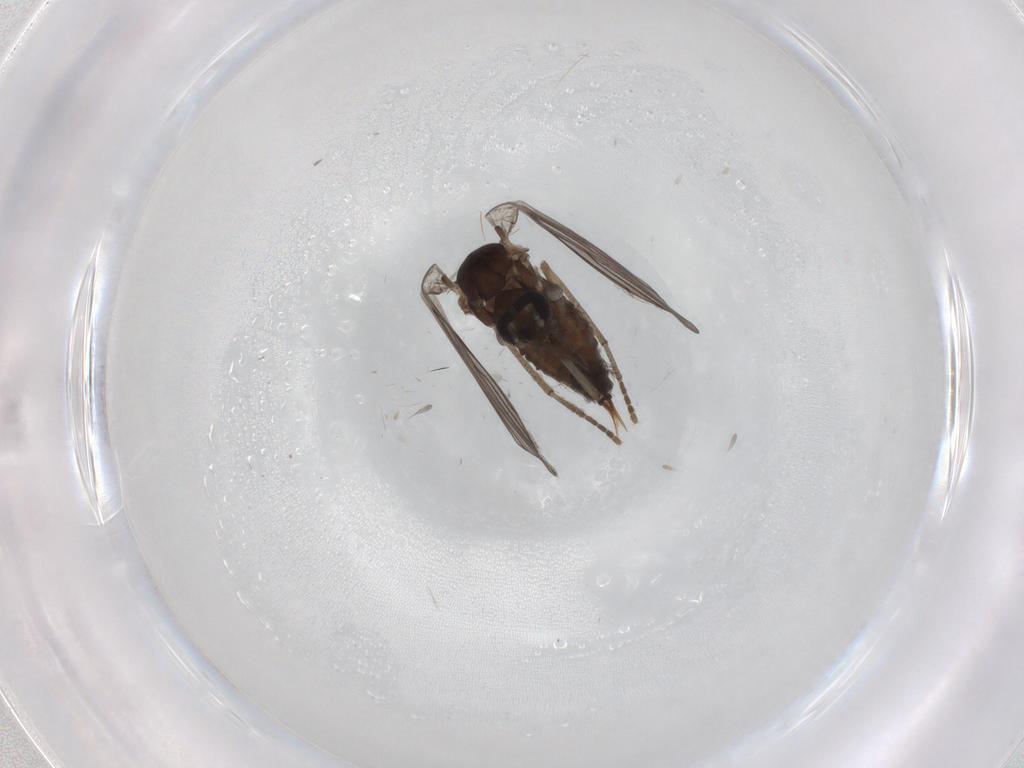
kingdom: Animalia
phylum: Arthropoda
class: Insecta
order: Diptera
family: Psychodidae
